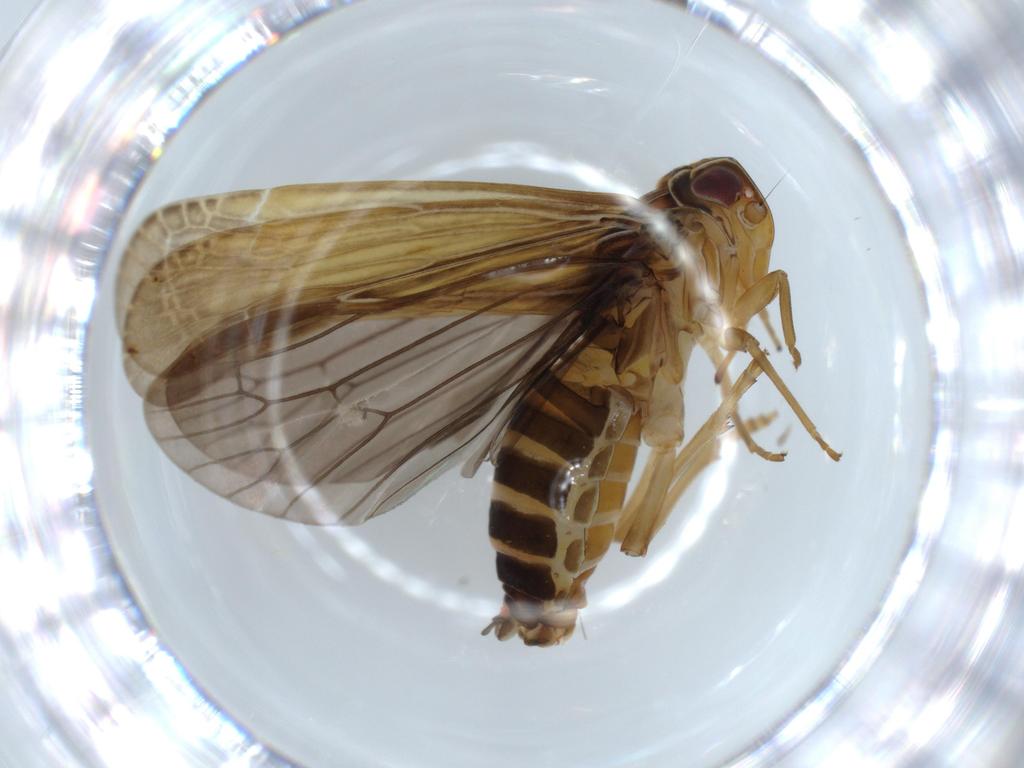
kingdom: Animalia
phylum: Arthropoda
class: Insecta
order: Hemiptera
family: Achilidae
